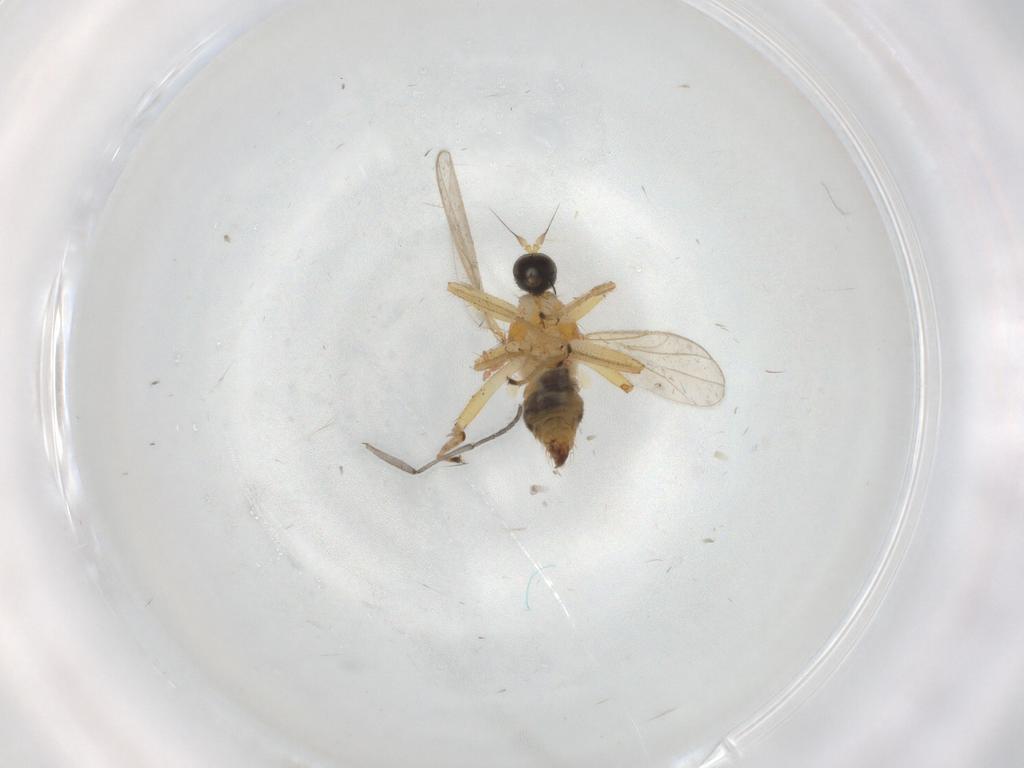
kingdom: Animalia
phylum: Arthropoda
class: Insecta
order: Diptera
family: Hybotidae
